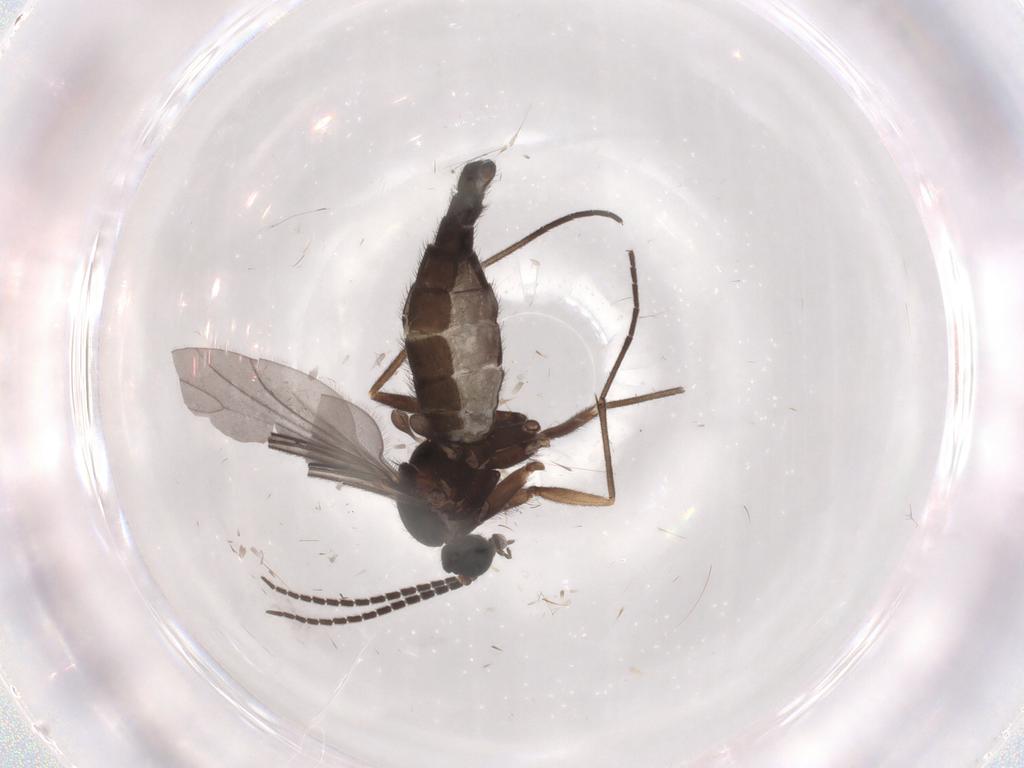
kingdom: Animalia
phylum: Arthropoda
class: Insecta
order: Diptera
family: Sciaridae
